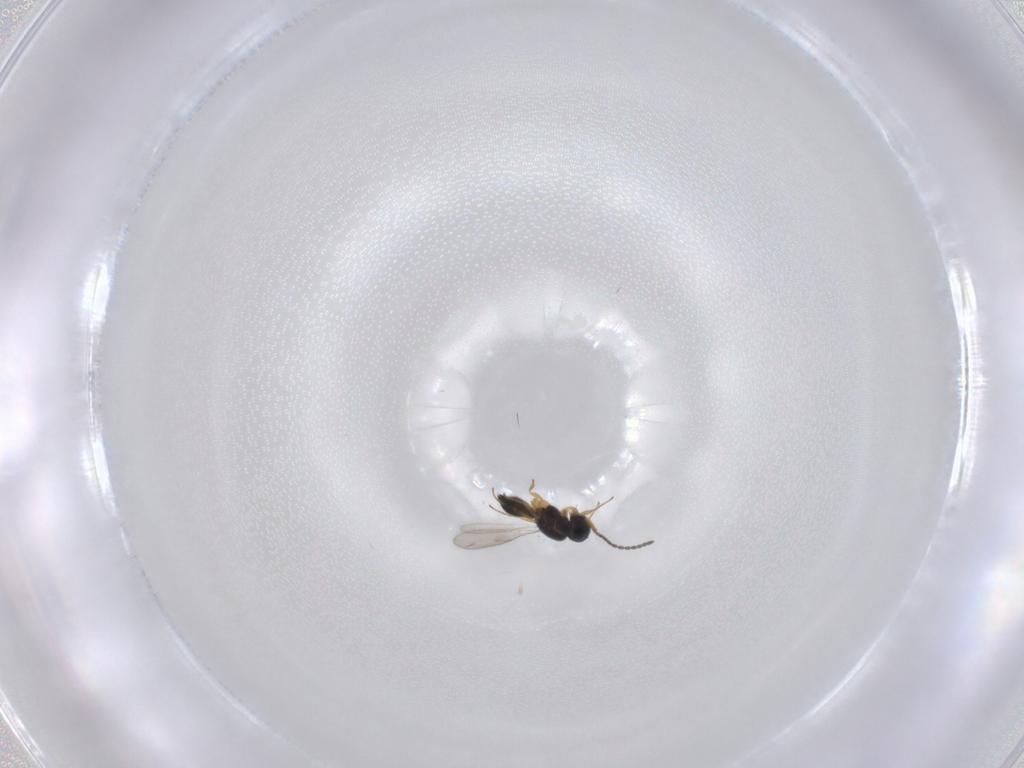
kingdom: Animalia
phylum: Arthropoda
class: Insecta
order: Hymenoptera
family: Scelionidae
